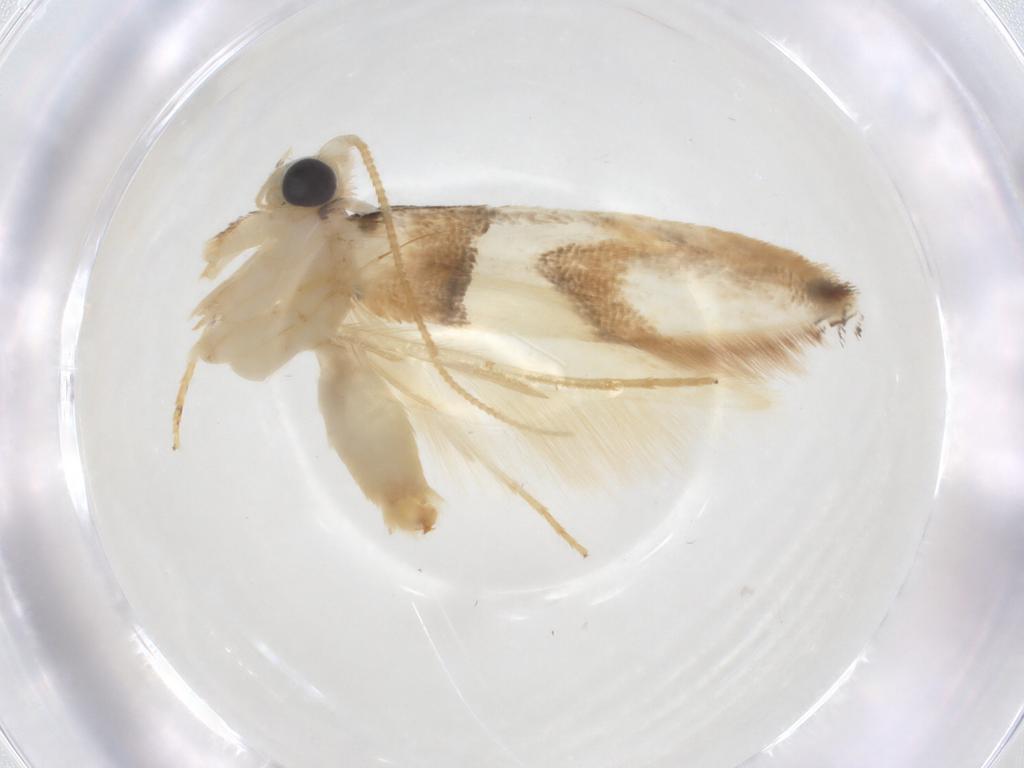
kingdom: Animalia
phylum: Arthropoda
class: Insecta
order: Lepidoptera
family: Tineidae
